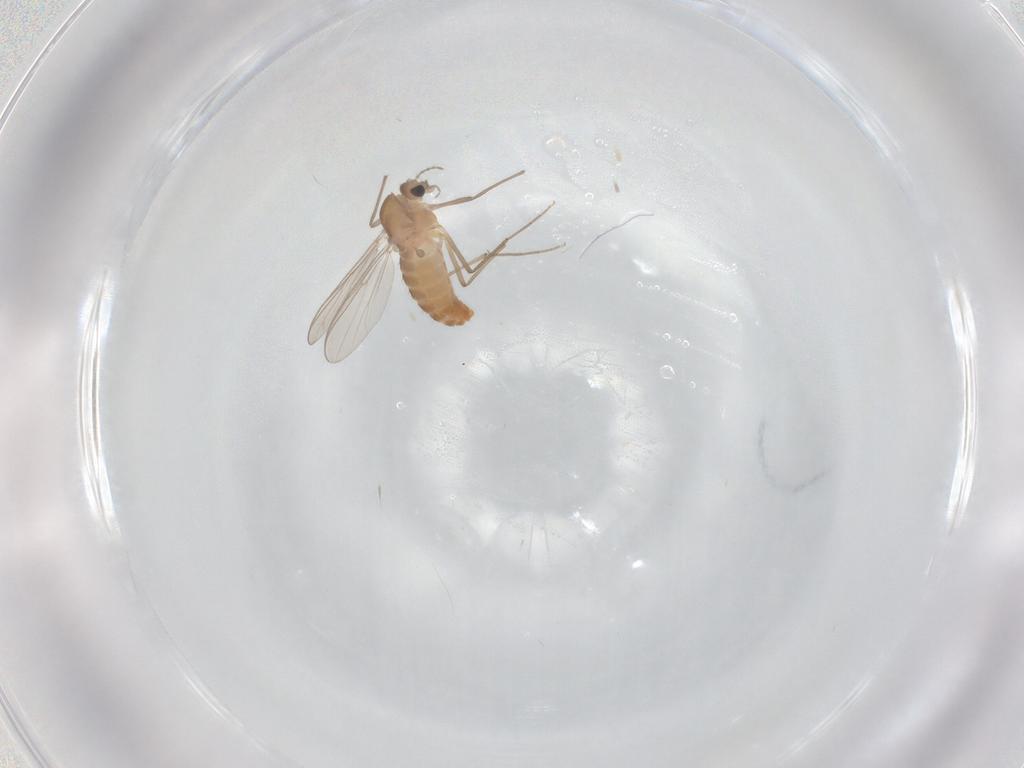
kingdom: Animalia
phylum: Arthropoda
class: Insecta
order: Diptera
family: Chironomidae
